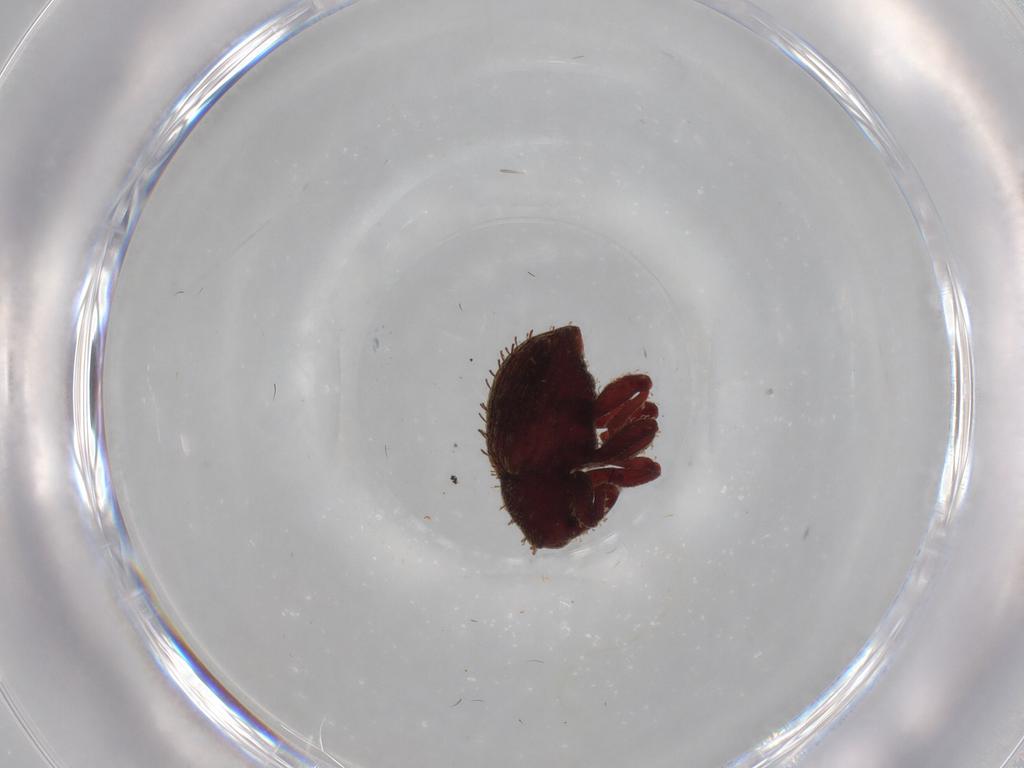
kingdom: Animalia
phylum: Arthropoda
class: Insecta
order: Coleoptera
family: Curculionidae
